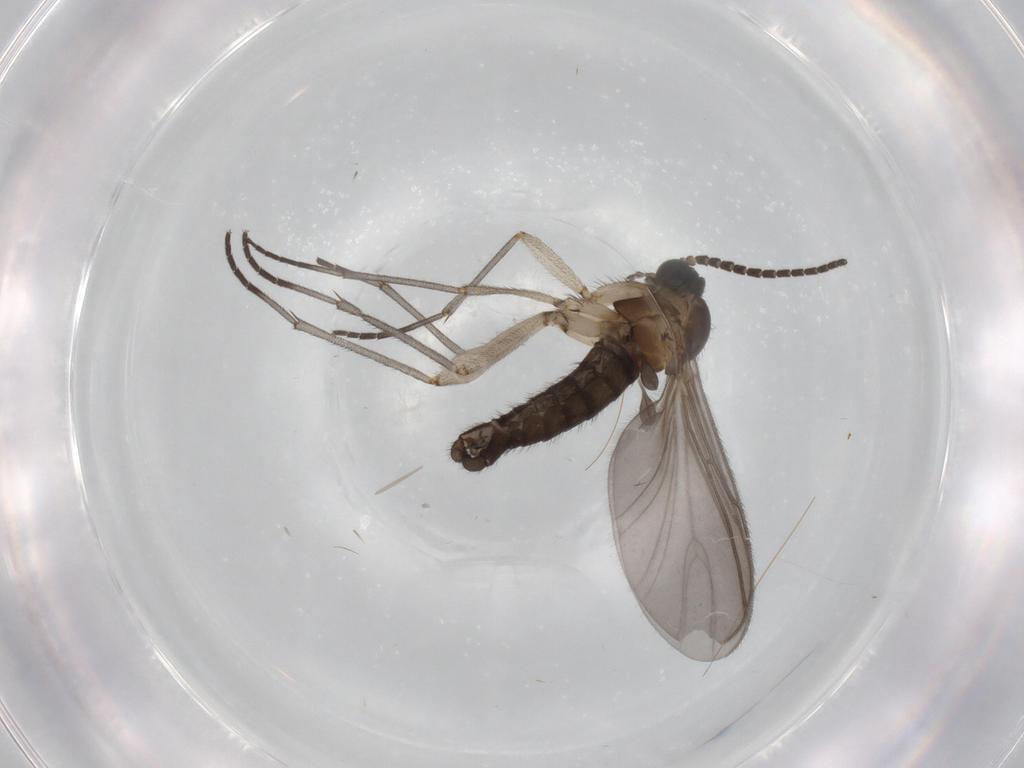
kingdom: Animalia
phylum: Arthropoda
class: Insecta
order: Diptera
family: Sciaridae
